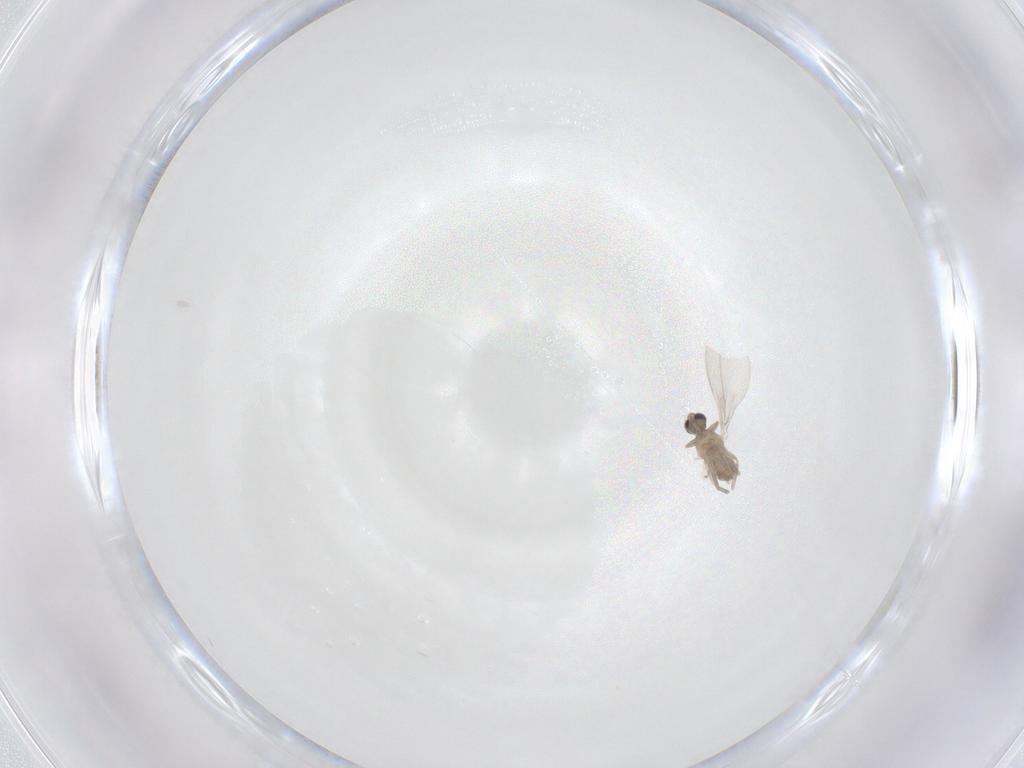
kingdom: Animalia
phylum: Arthropoda
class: Insecta
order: Diptera
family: Cecidomyiidae
